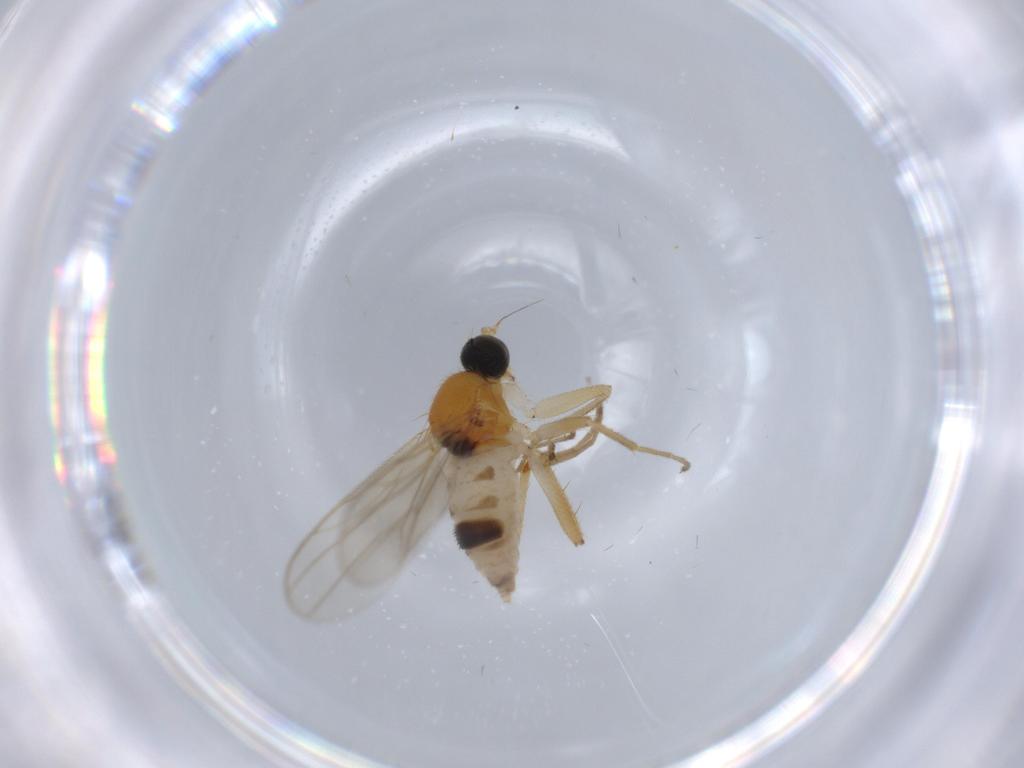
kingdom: Animalia
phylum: Arthropoda
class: Insecta
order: Diptera
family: Hybotidae
